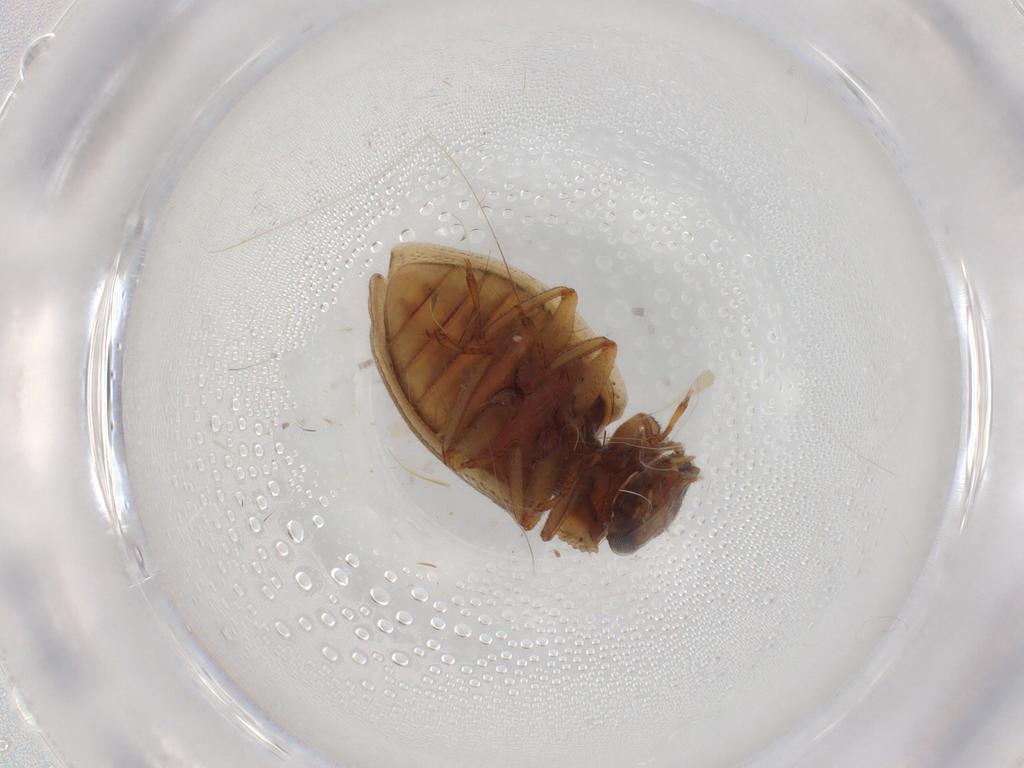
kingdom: Animalia
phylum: Arthropoda
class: Insecta
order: Coleoptera
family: Spercheidae
